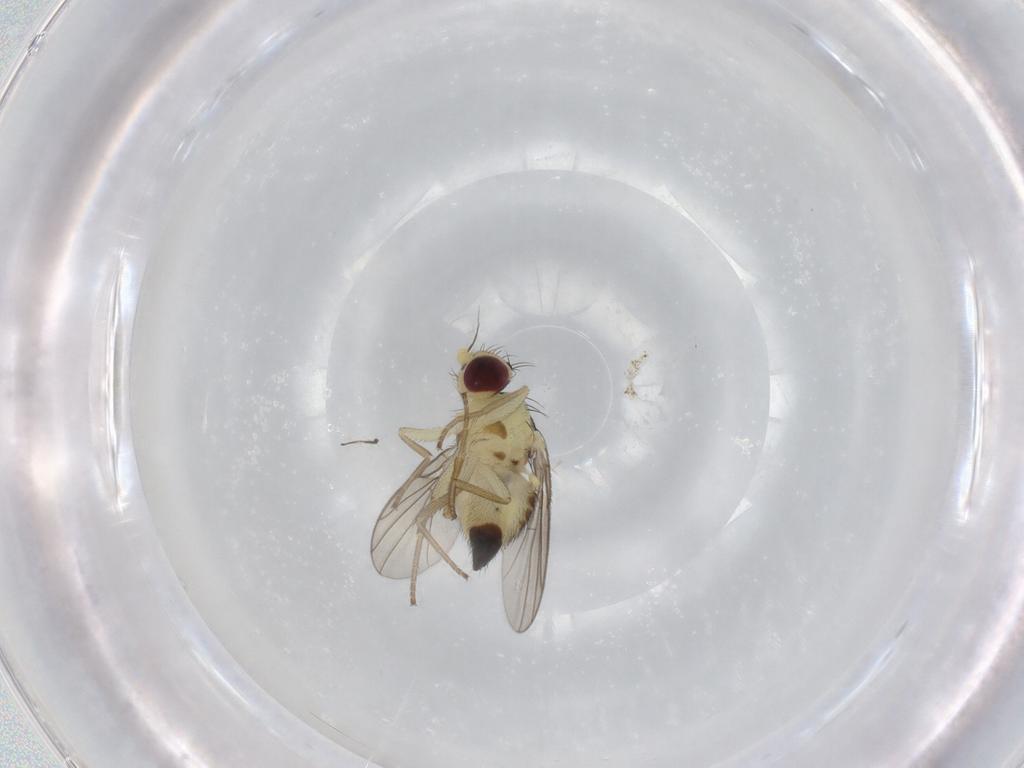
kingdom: Animalia
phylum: Arthropoda
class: Insecta
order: Diptera
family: Agromyzidae
